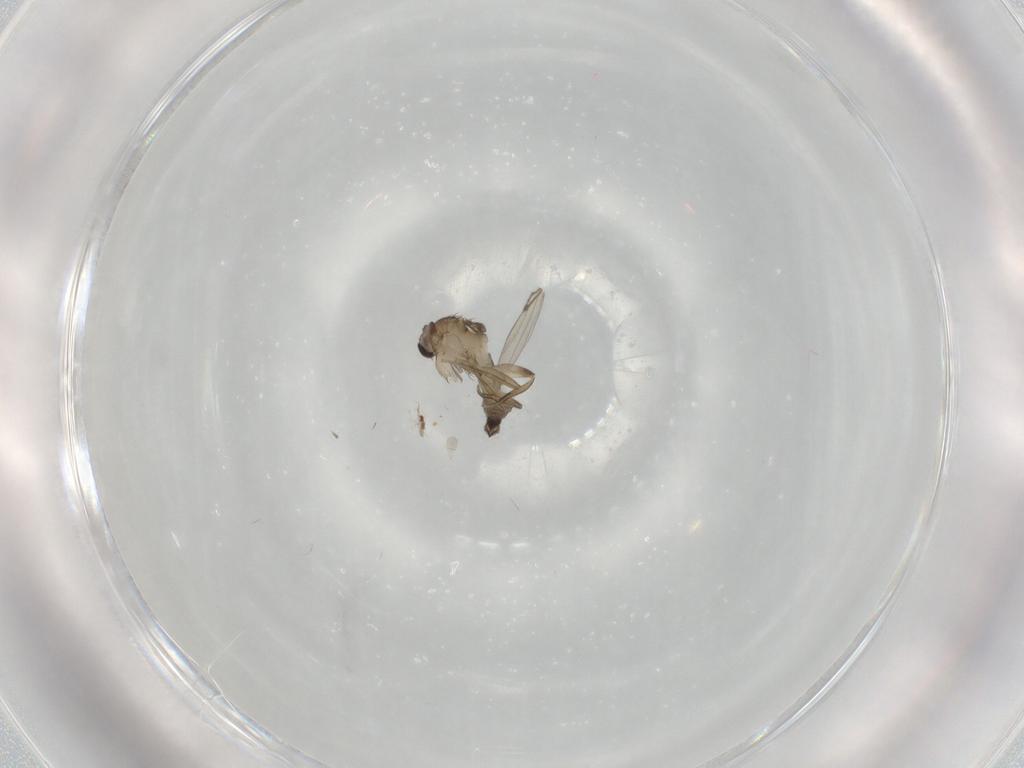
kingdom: Animalia
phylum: Arthropoda
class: Insecta
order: Diptera
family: Phoridae
